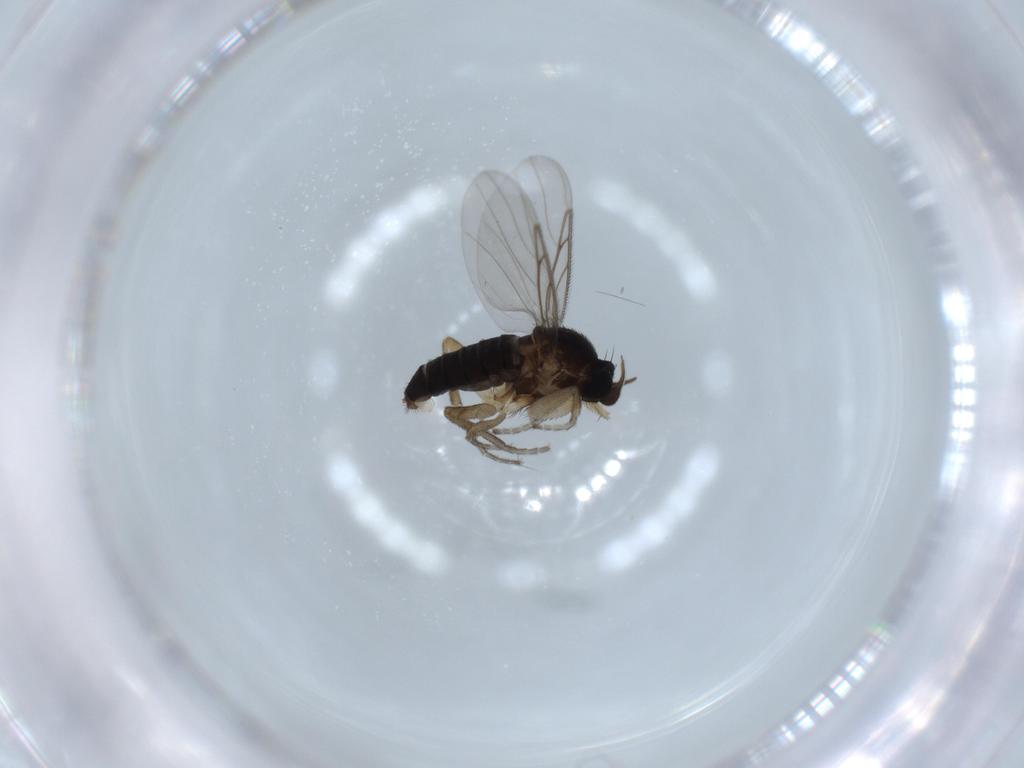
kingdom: Animalia
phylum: Arthropoda
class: Insecta
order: Diptera
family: Phoridae
